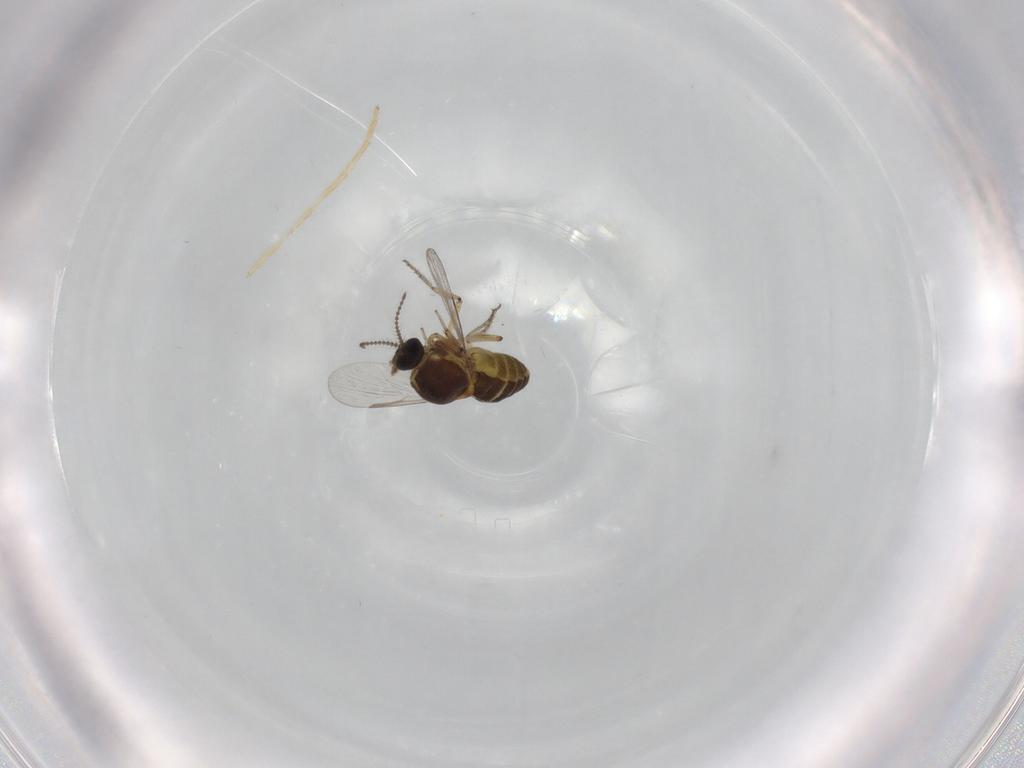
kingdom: Animalia
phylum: Arthropoda
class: Insecta
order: Diptera
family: Ceratopogonidae
